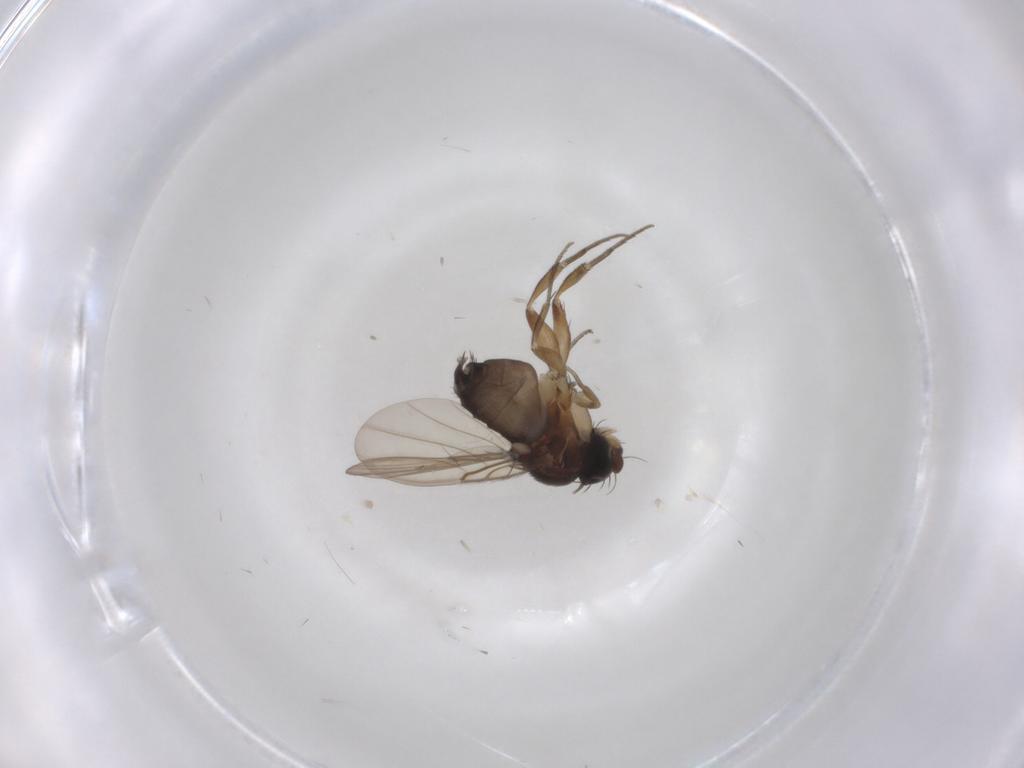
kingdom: Animalia
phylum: Arthropoda
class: Insecta
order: Diptera
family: Phoridae
